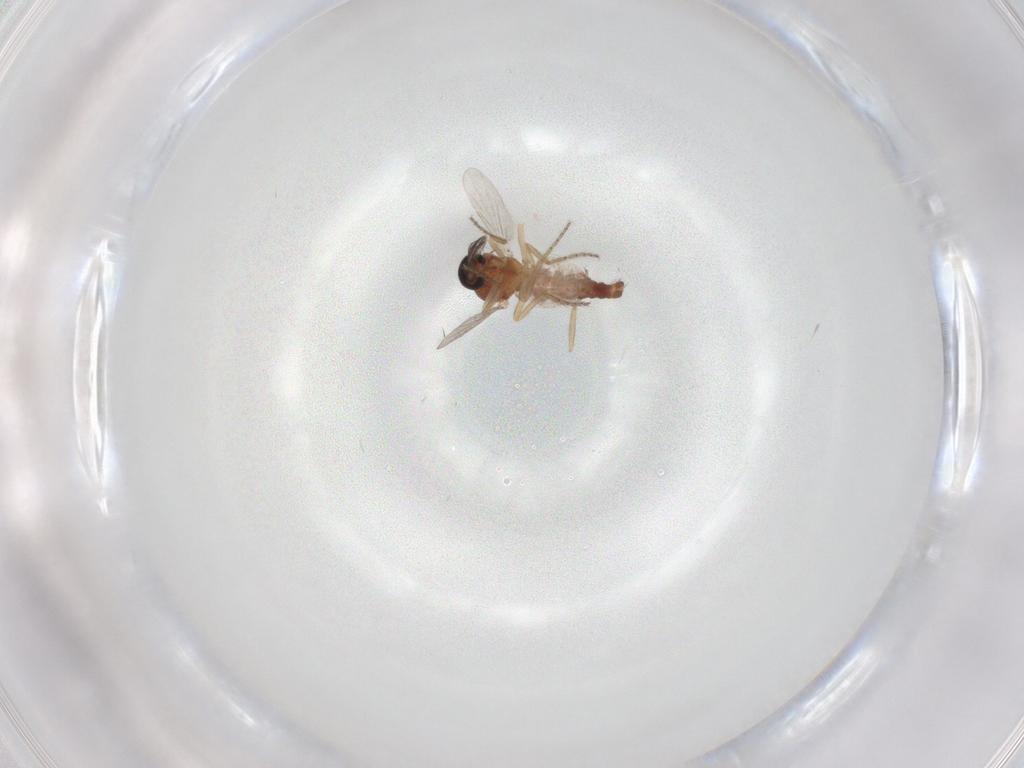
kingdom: Animalia
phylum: Arthropoda
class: Insecta
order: Diptera
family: Ceratopogonidae
